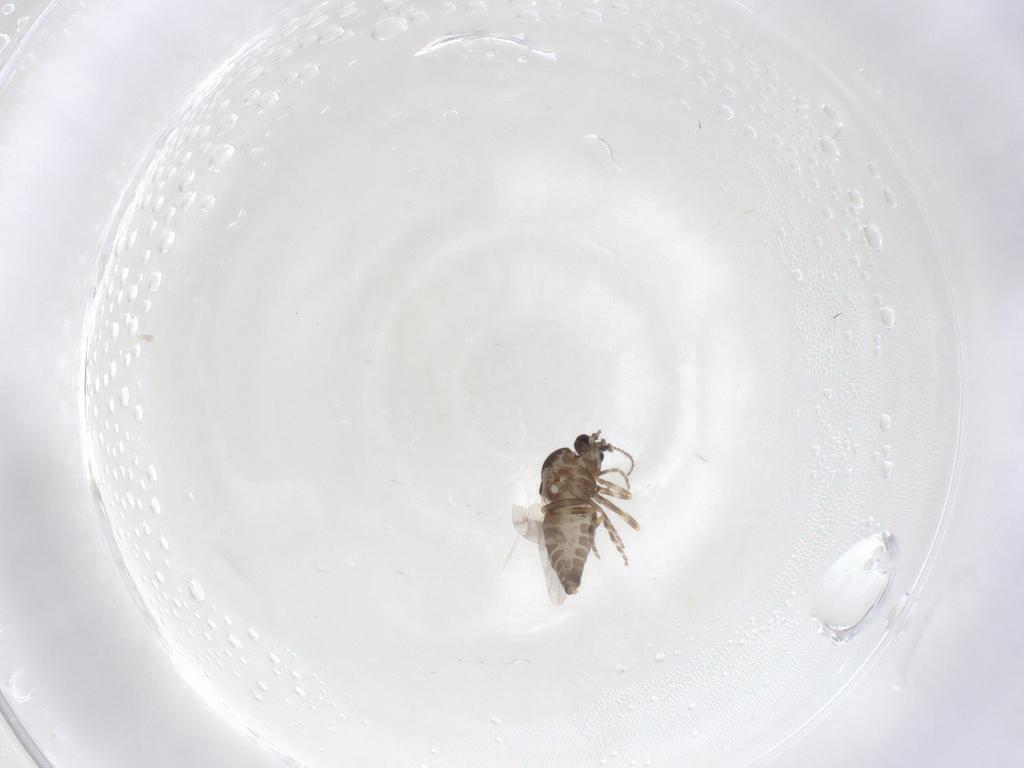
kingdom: Animalia
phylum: Arthropoda
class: Insecta
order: Diptera
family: Ceratopogonidae
